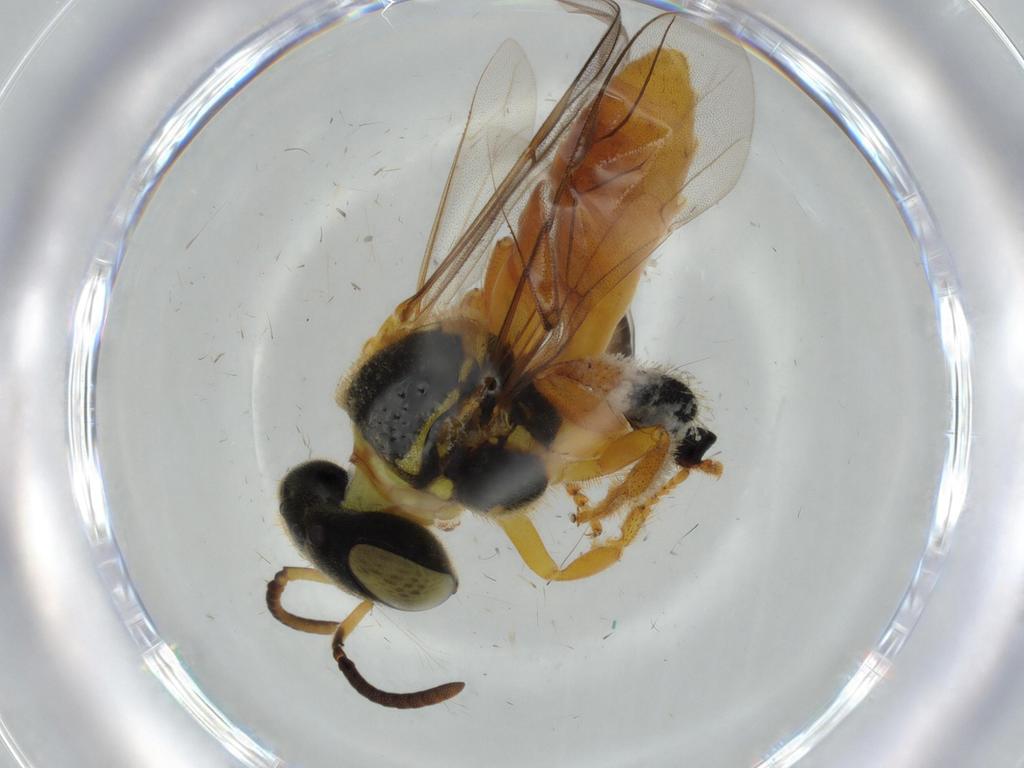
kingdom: Animalia
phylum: Arthropoda
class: Insecta
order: Hymenoptera
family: Apidae
